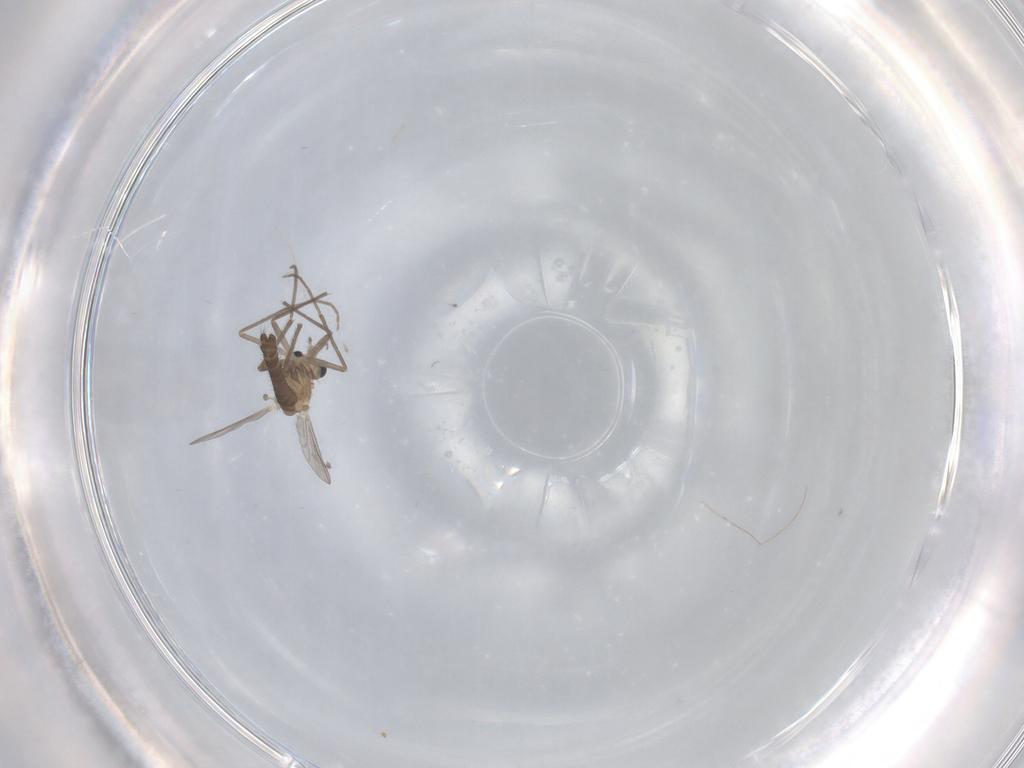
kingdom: Animalia
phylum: Arthropoda
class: Insecta
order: Diptera
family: Chironomidae
